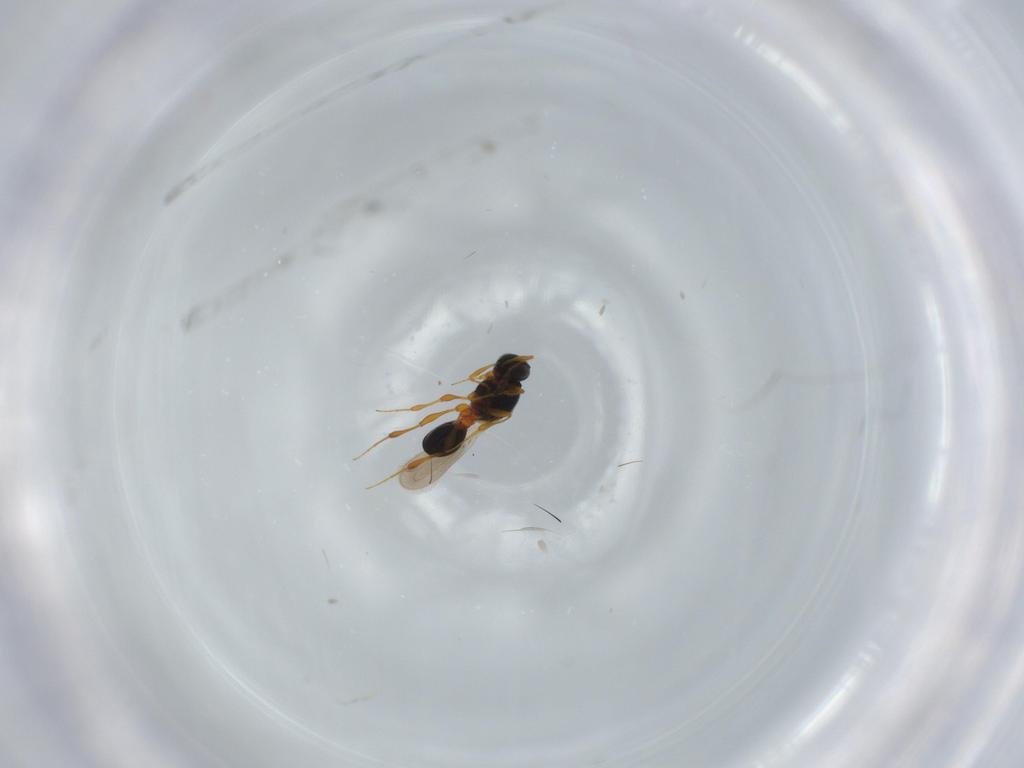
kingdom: Animalia
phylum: Arthropoda
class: Insecta
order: Hymenoptera
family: Platygastridae
